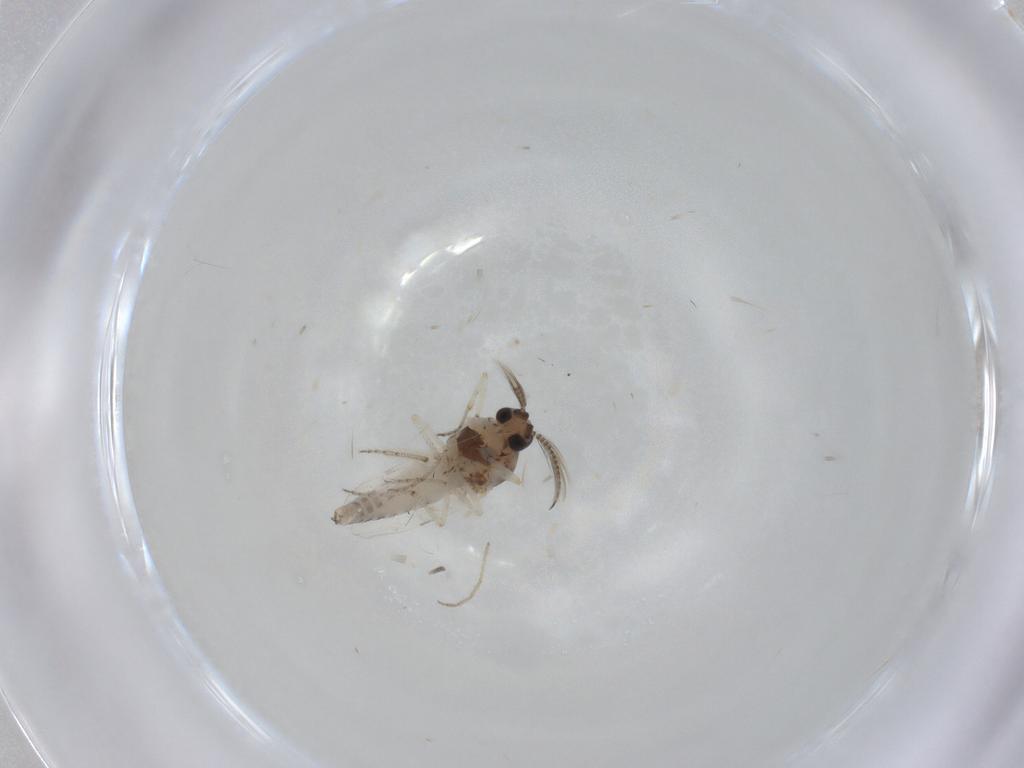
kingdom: Animalia
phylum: Arthropoda
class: Insecta
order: Diptera
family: Ceratopogonidae
